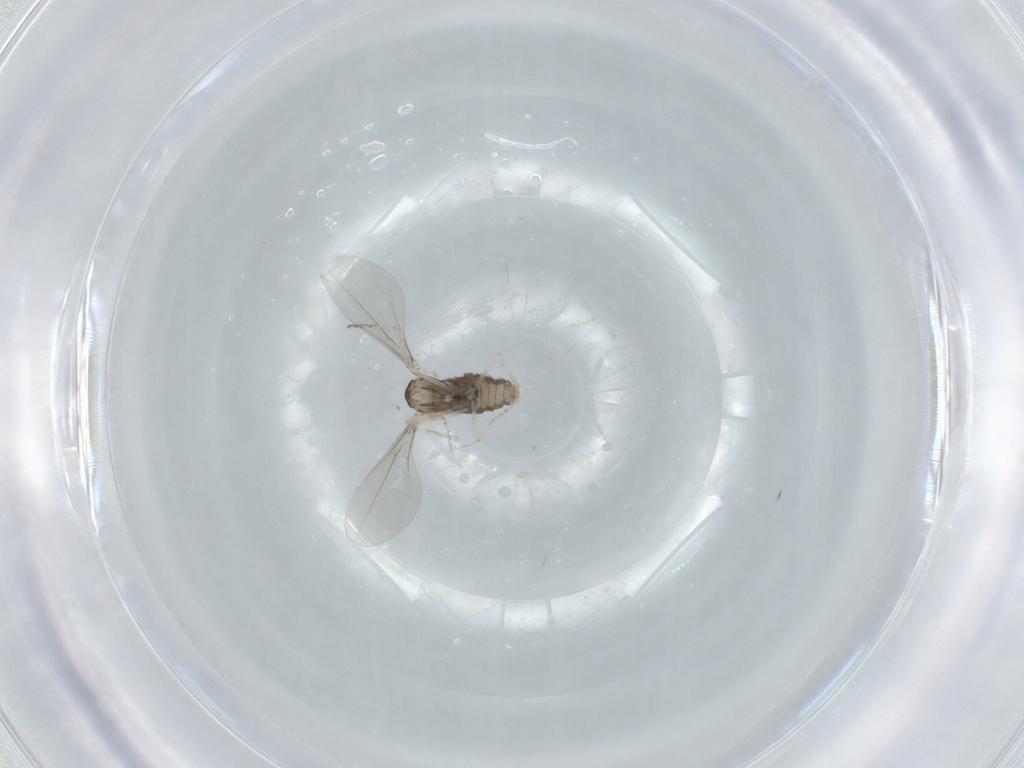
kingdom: Animalia
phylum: Arthropoda
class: Insecta
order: Diptera
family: Cecidomyiidae
